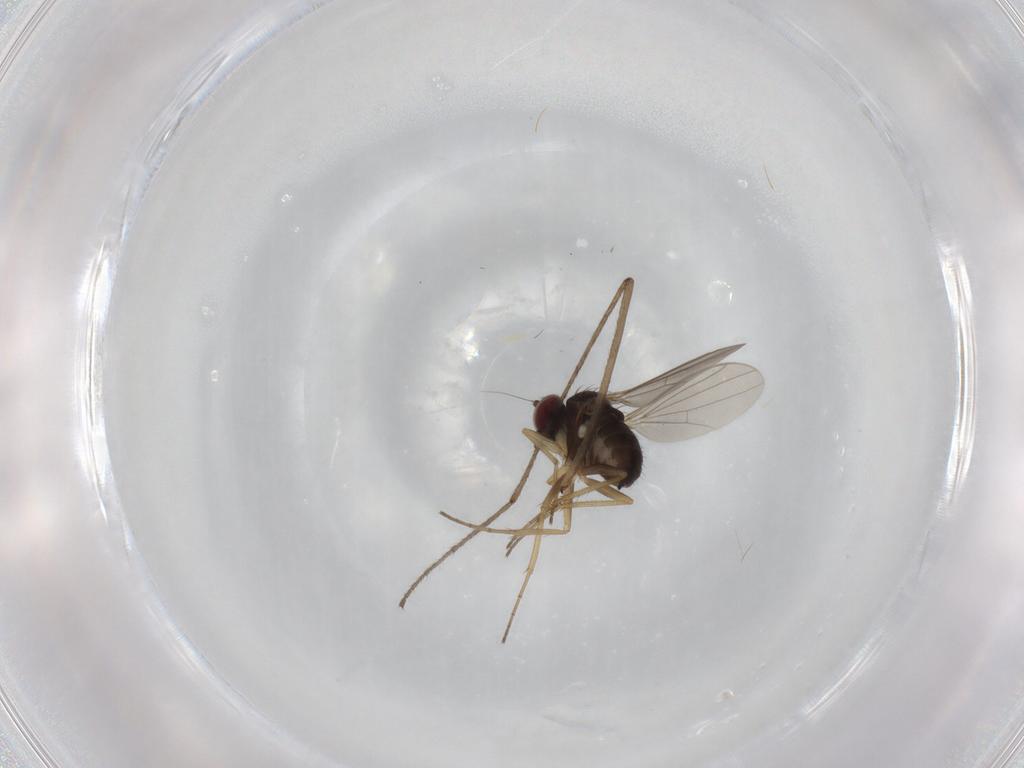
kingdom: Animalia
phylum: Arthropoda
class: Insecta
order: Diptera
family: Dolichopodidae
